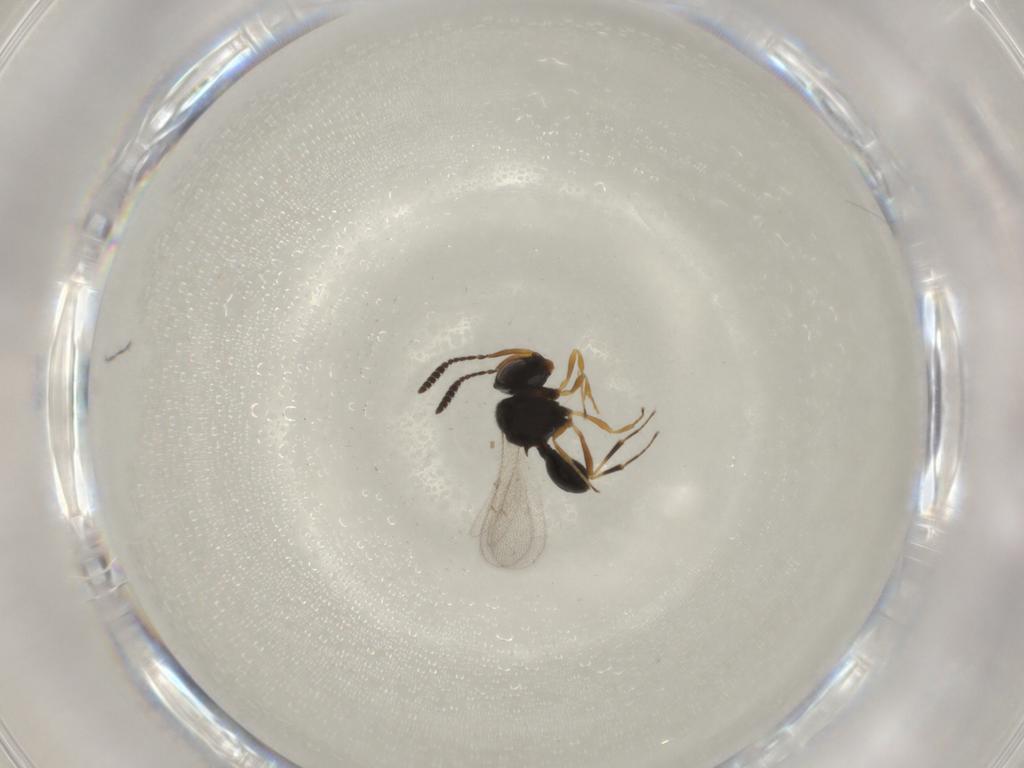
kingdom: Animalia
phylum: Arthropoda
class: Insecta
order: Hymenoptera
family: Scelionidae
